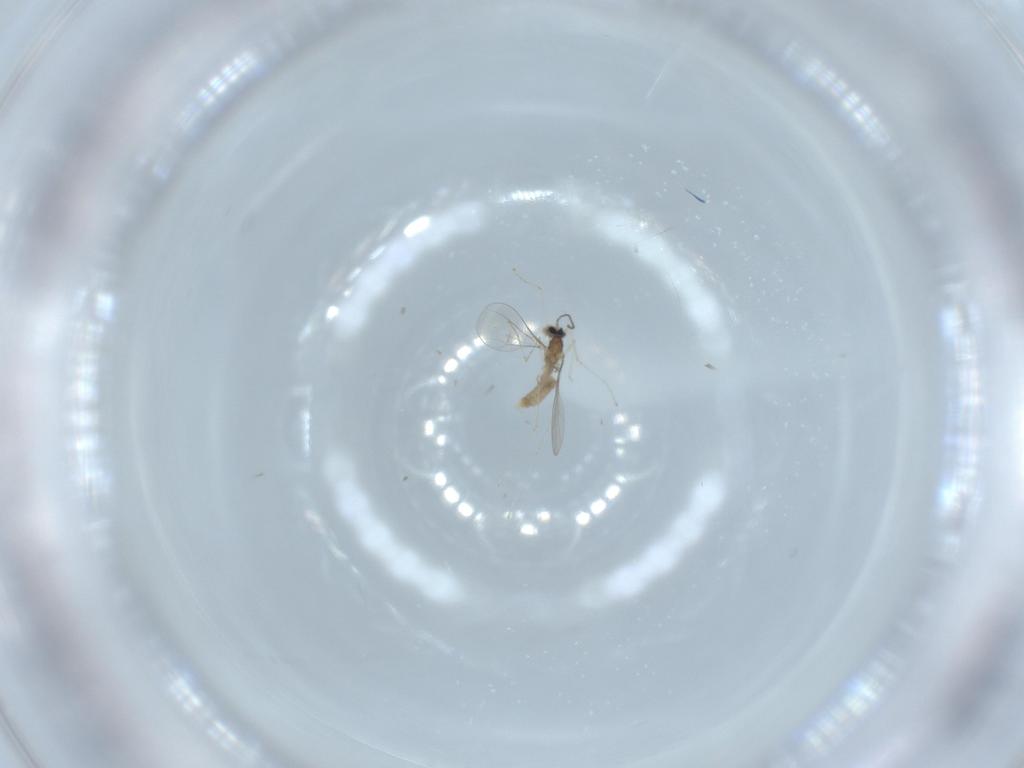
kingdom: Animalia
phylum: Arthropoda
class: Insecta
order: Diptera
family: Cecidomyiidae
